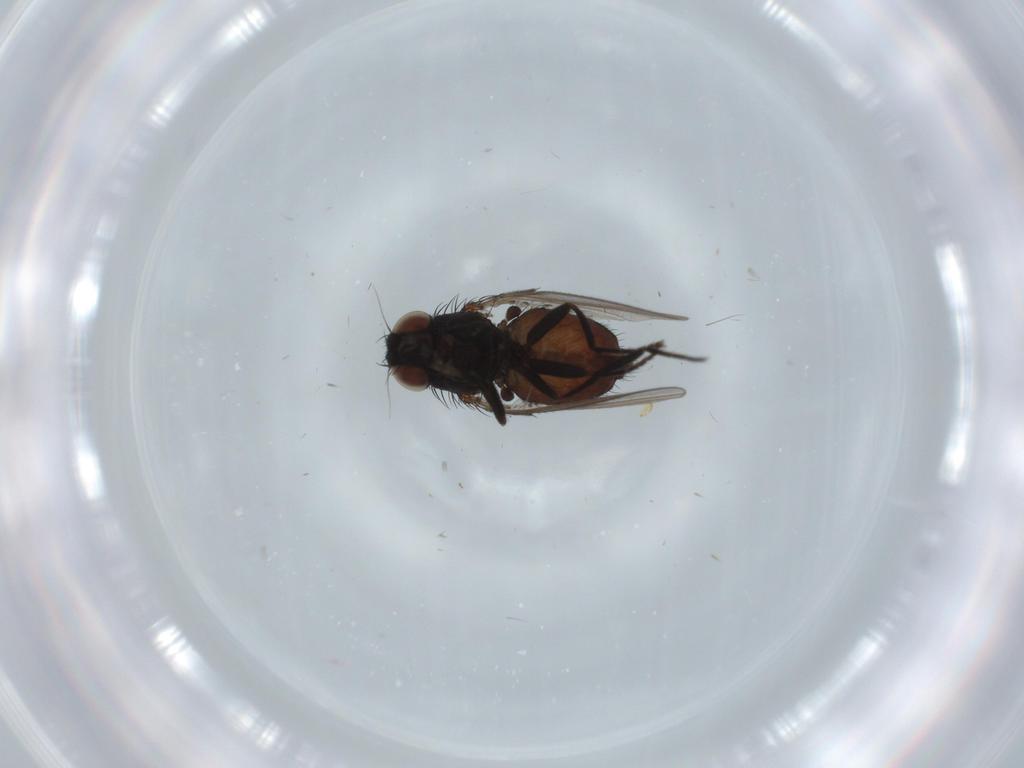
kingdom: Animalia
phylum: Arthropoda
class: Insecta
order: Diptera
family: Milichiidae
